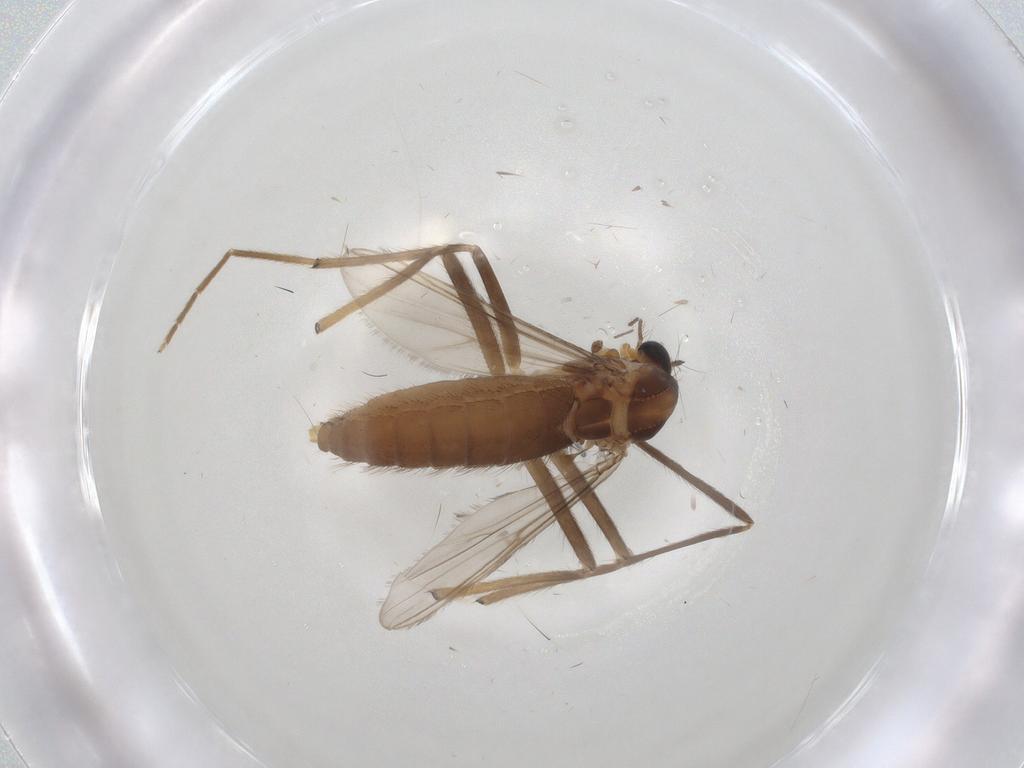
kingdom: Animalia
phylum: Arthropoda
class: Insecta
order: Diptera
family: Chironomidae
